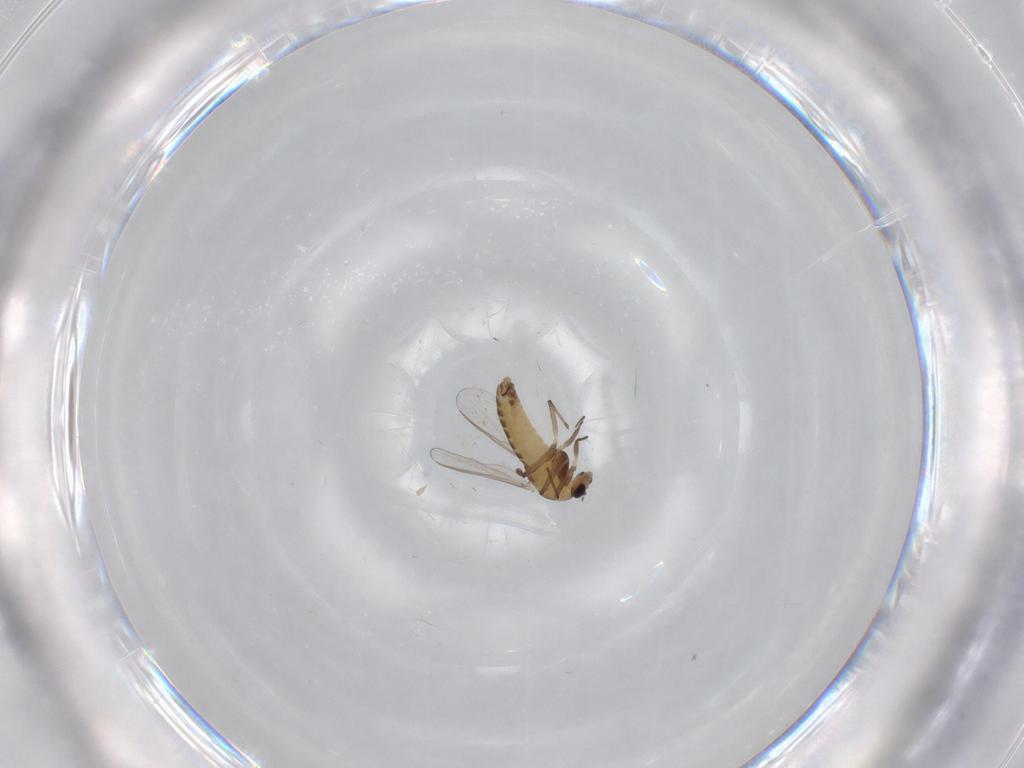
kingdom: Animalia
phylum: Arthropoda
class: Insecta
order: Diptera
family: Chironomidae
